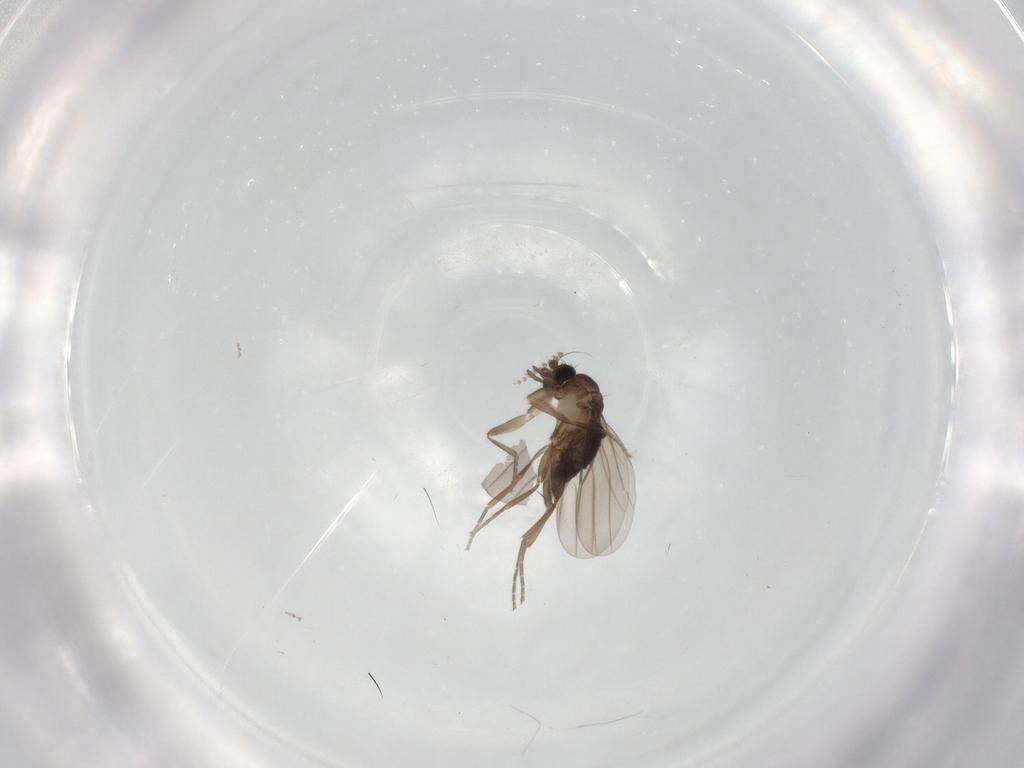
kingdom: Animalia
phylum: Arthropoda
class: Insecta
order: Diptera
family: Cecidomyiidae
